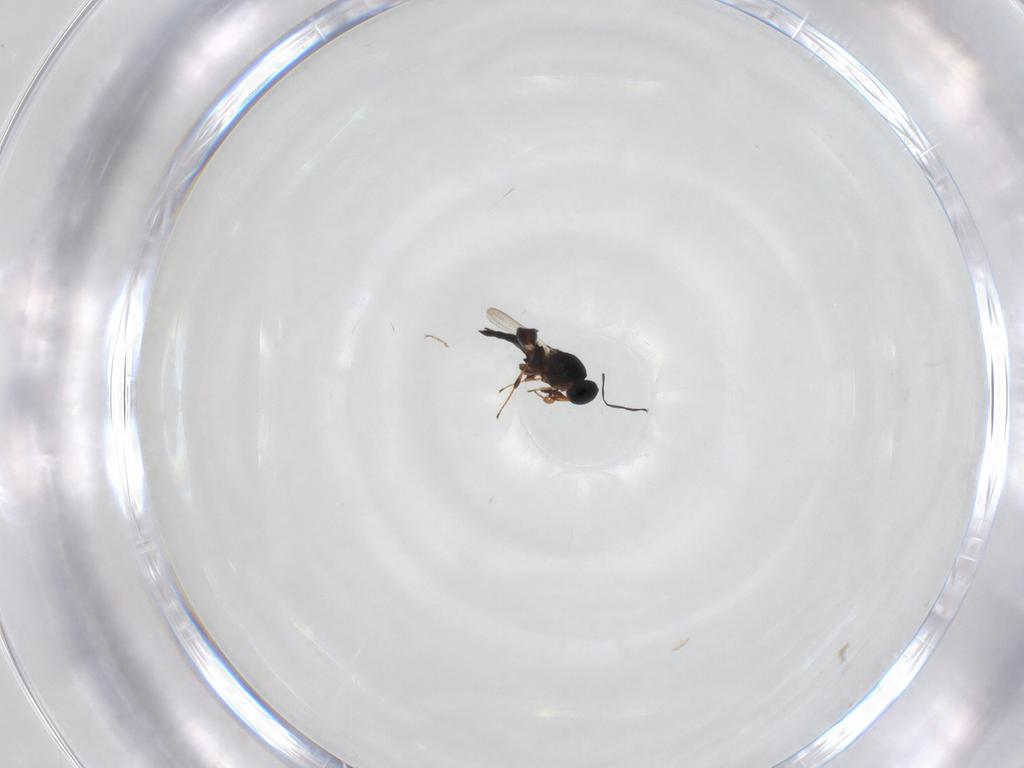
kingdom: Animalia
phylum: Arthropoda
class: Insecta
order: Hymenoptera
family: Platygastridae
